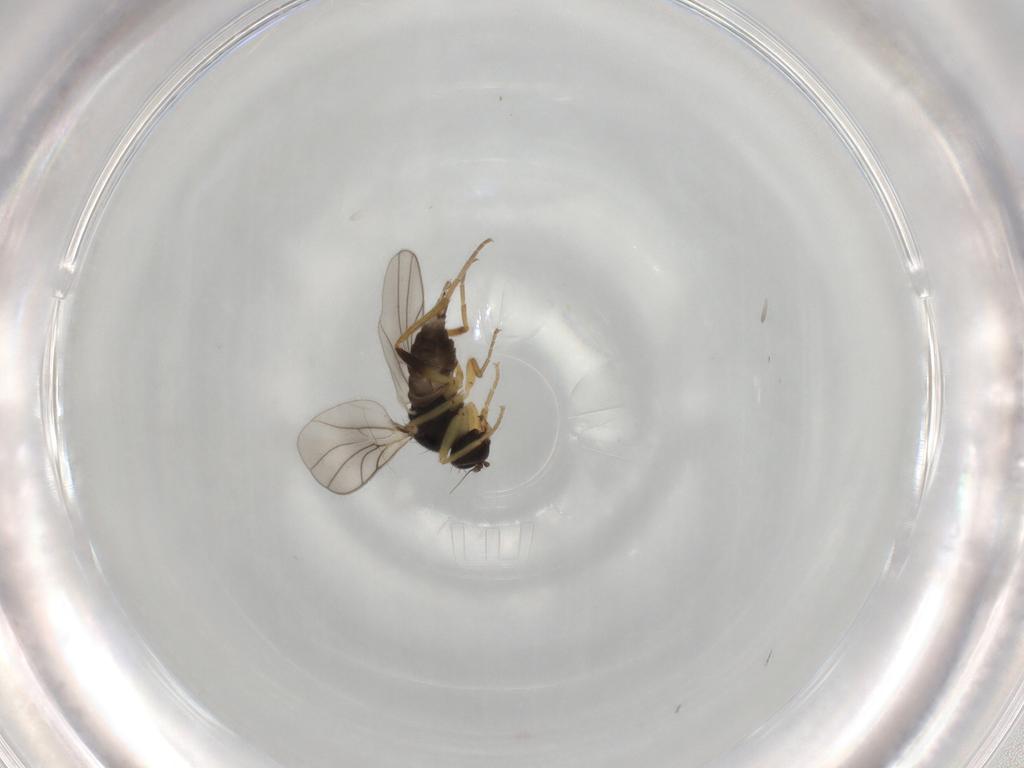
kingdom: Animalia
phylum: Arthropoda
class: Insecta
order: Diptera
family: Hybotidae
